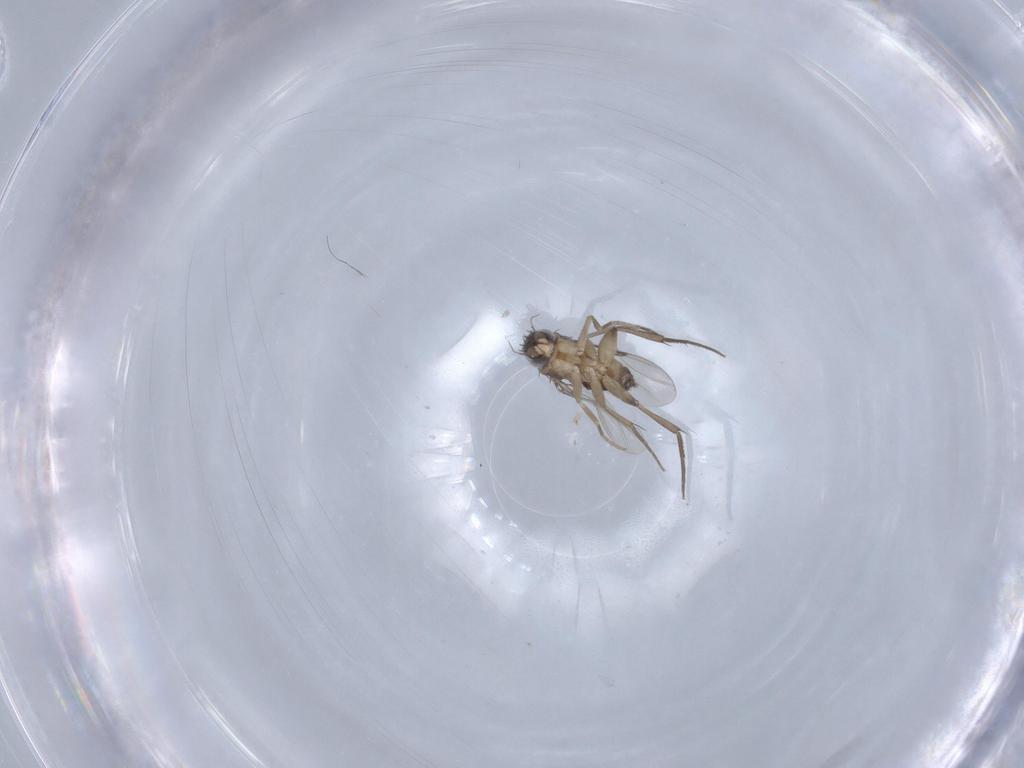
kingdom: Animalia
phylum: Arthropoda
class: Insecta
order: Diptera
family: Phoridae
